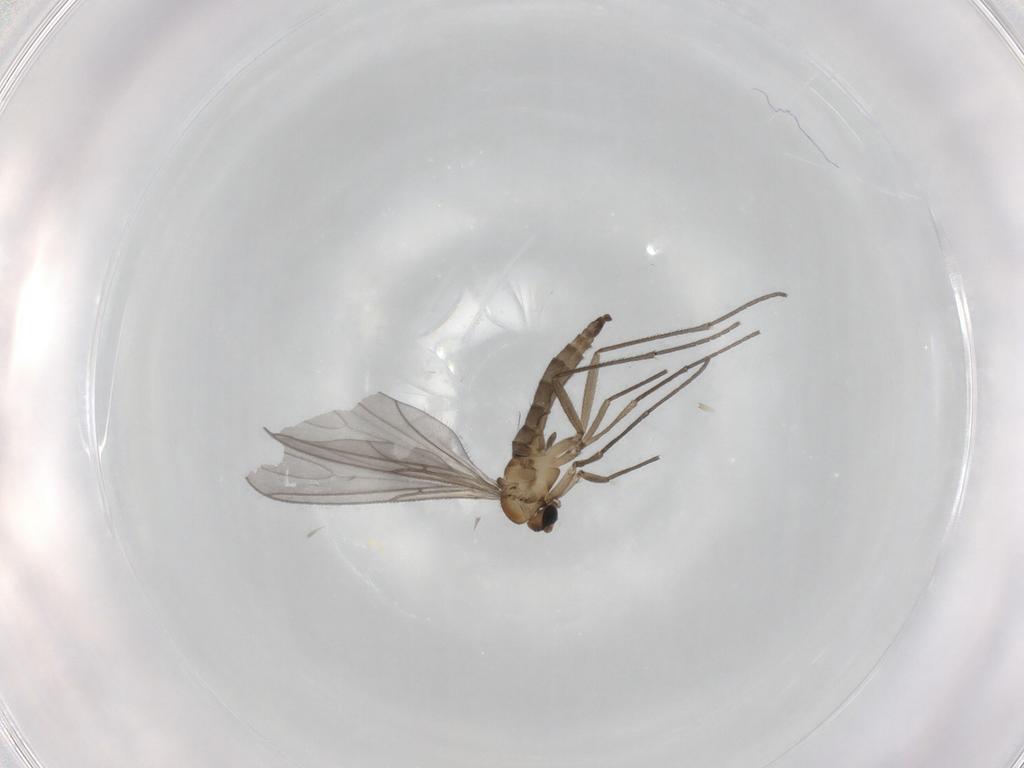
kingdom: Animalia
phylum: Arthropoda
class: Insecta
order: Diptera
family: Sciaridae
